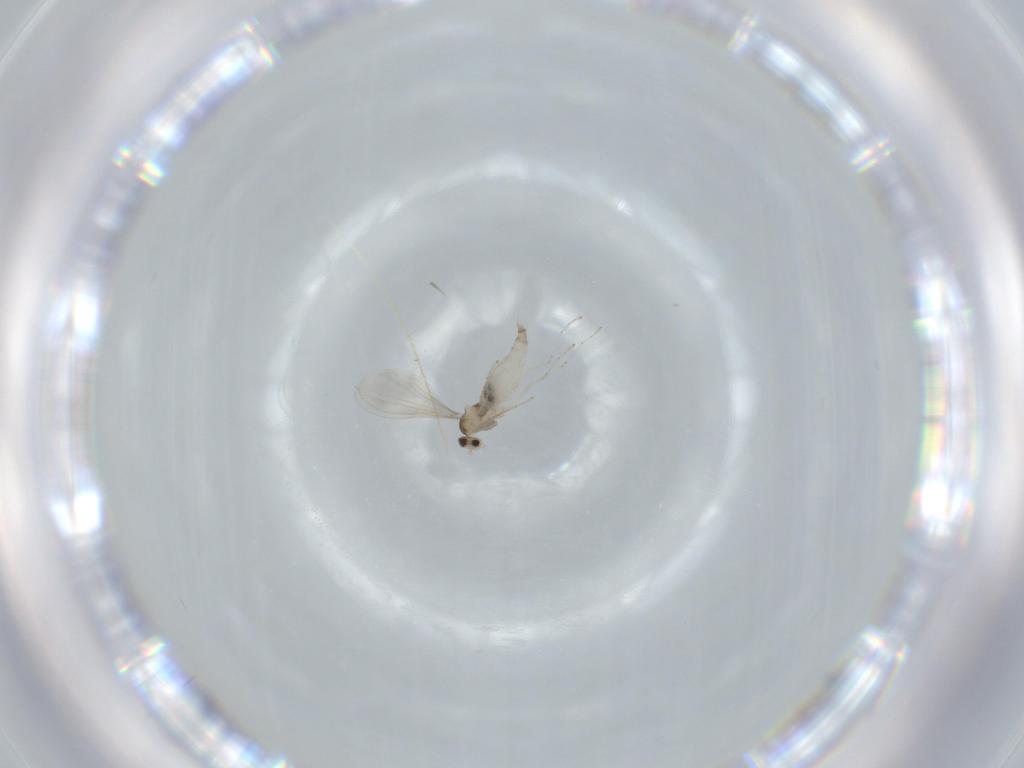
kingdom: Animalia
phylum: Arthropoda
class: Insecta
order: Diptera
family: Cecidomyiidae
